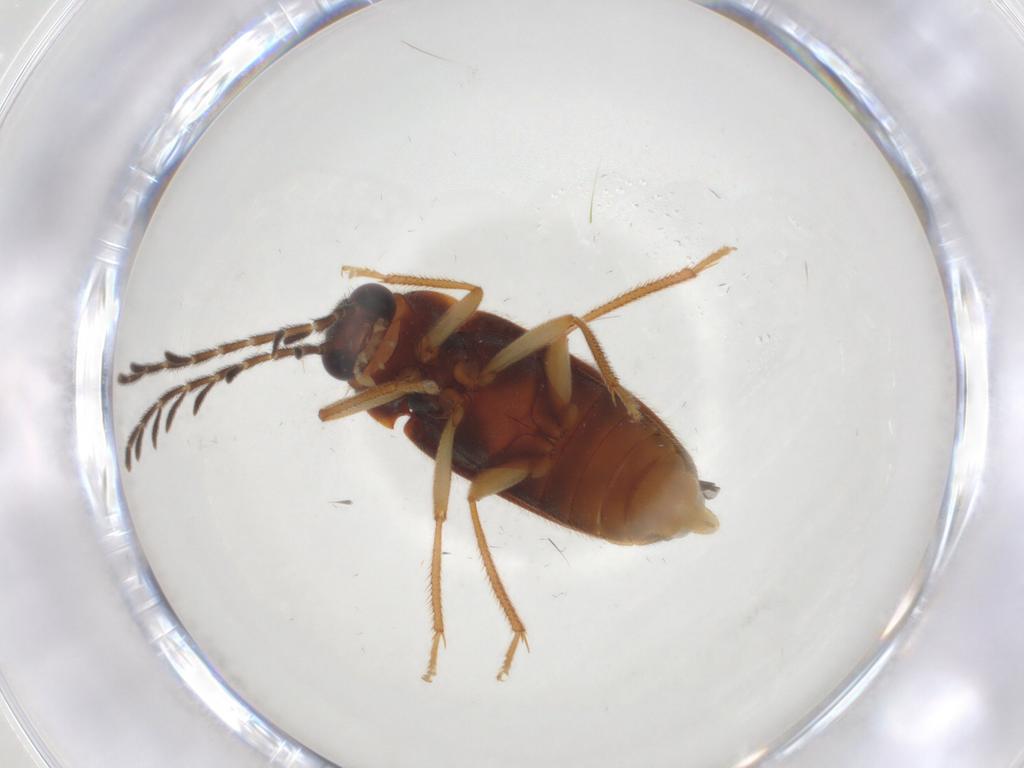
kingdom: Animalia
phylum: Arthropoda
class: Insecta
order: Coleoptera
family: Ptilodactylidae
